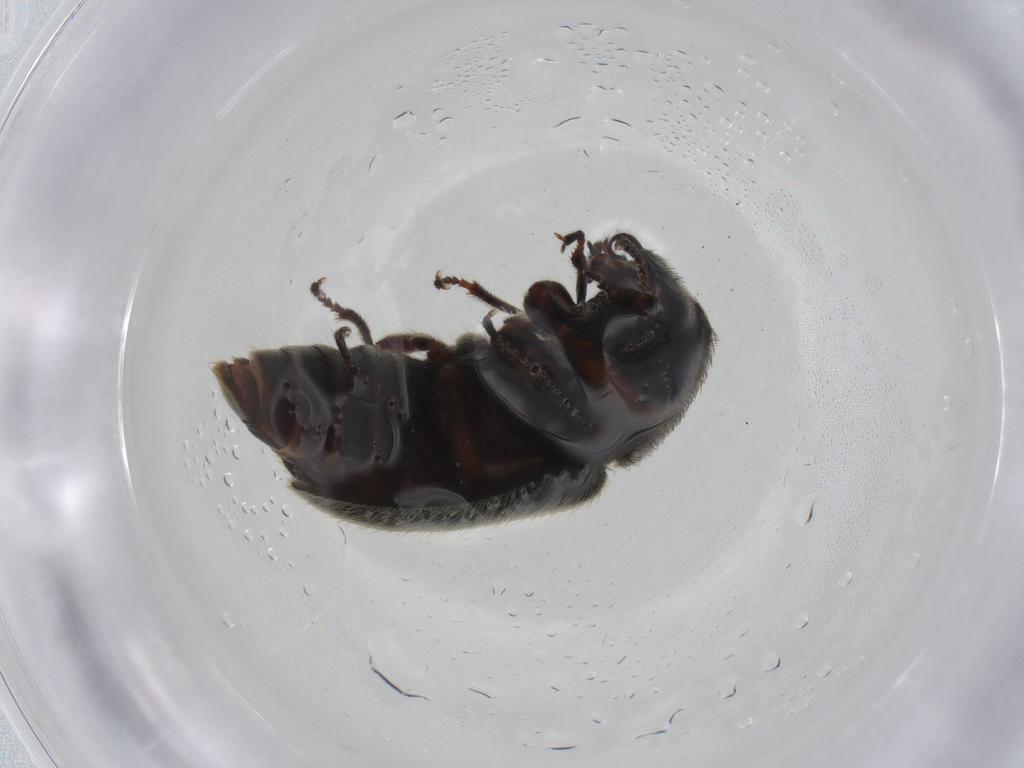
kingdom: Animalia
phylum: Arthropoda
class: Insecta
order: Coleoptera
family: Melyridae
